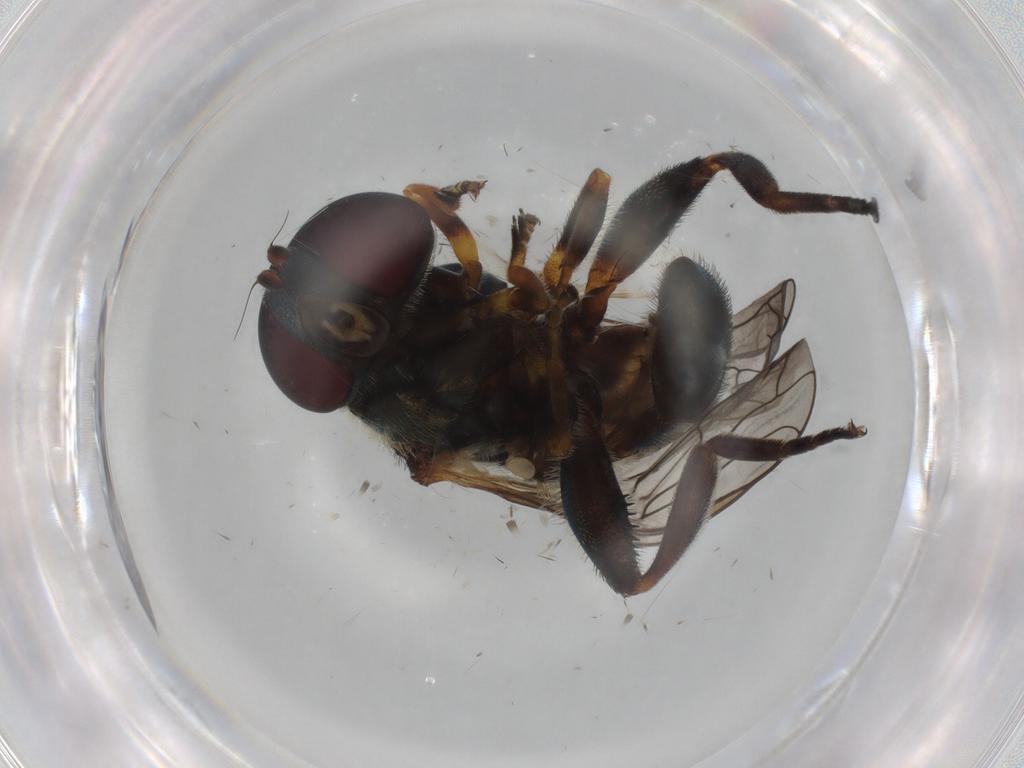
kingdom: Animalia
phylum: Arthropoda
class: Insecta
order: Diptera
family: Syrphidae
